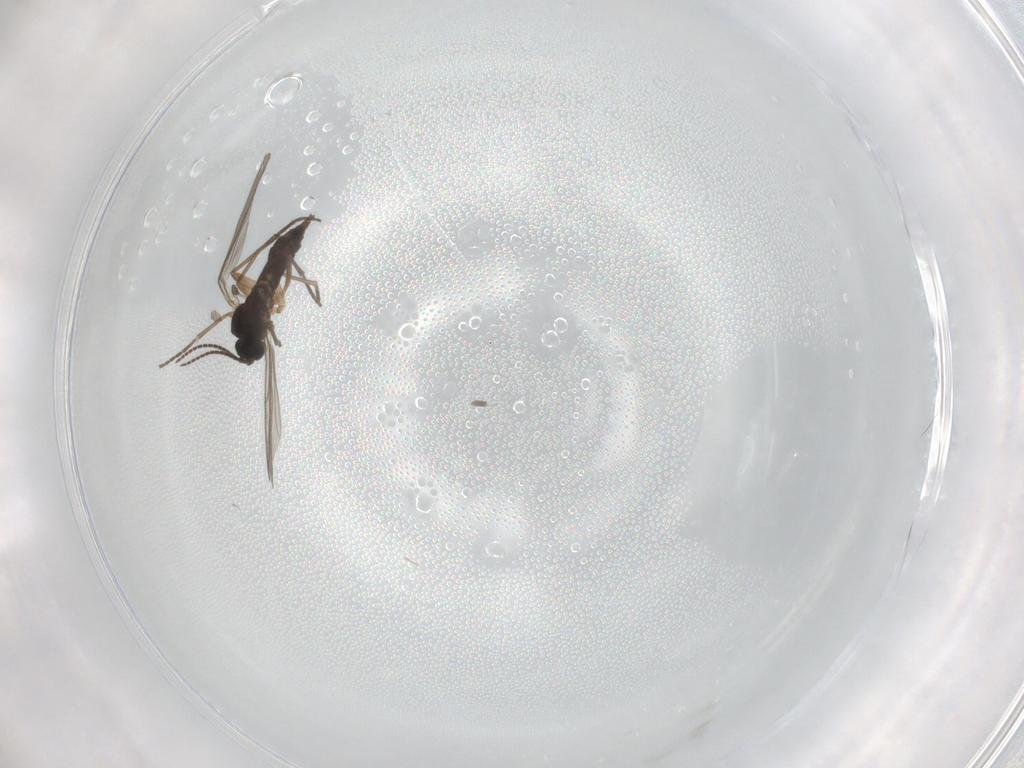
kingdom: Animalia
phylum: Arthropoda
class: Insecta
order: Diptera
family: Sciaridae
